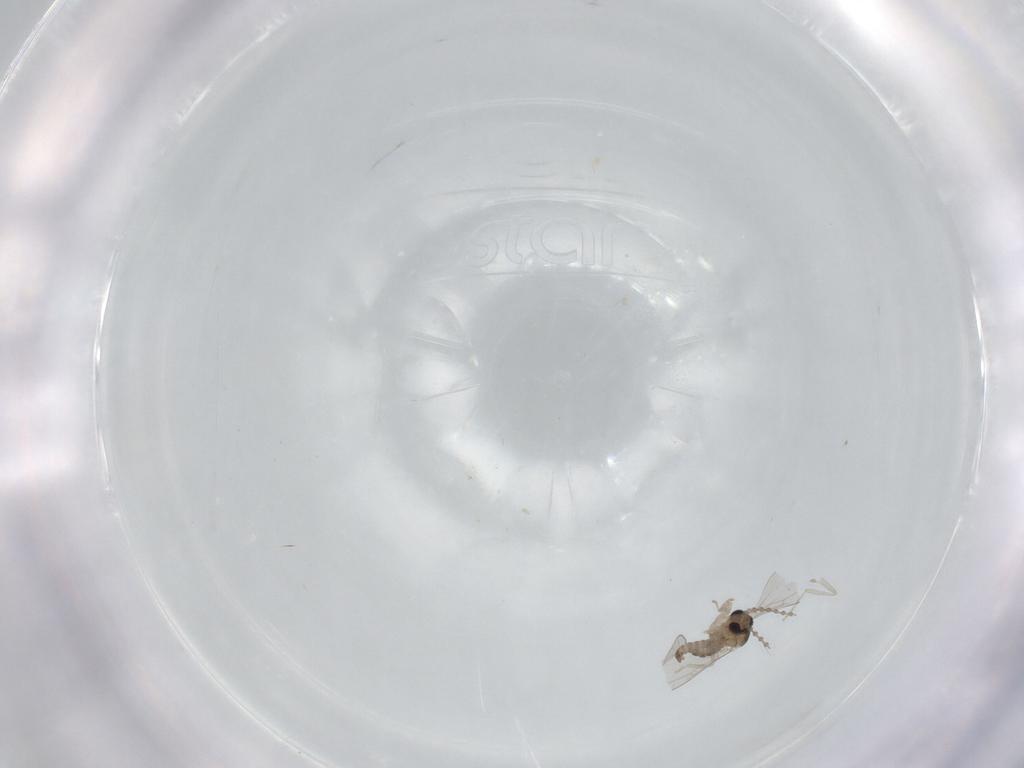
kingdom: Animalia
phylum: Arthropoda
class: Insecta
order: Diptera
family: Cecidomyiidae
